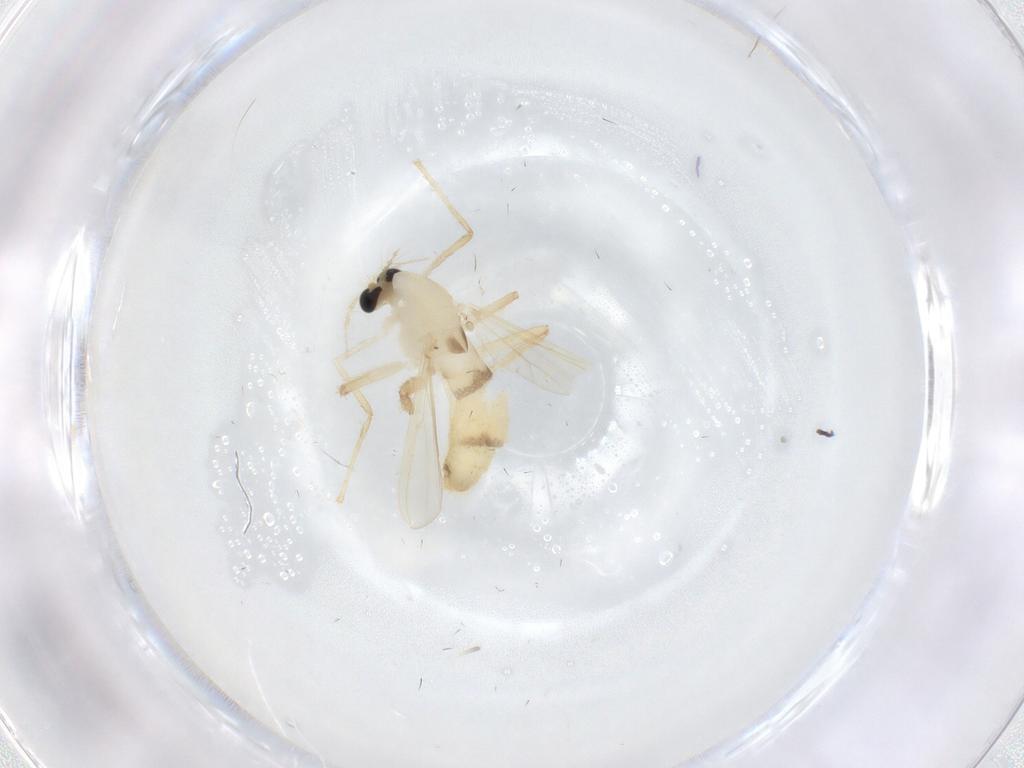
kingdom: Animalia
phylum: Arthropoda
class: Insecta
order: Diptera
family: Chironomidae
